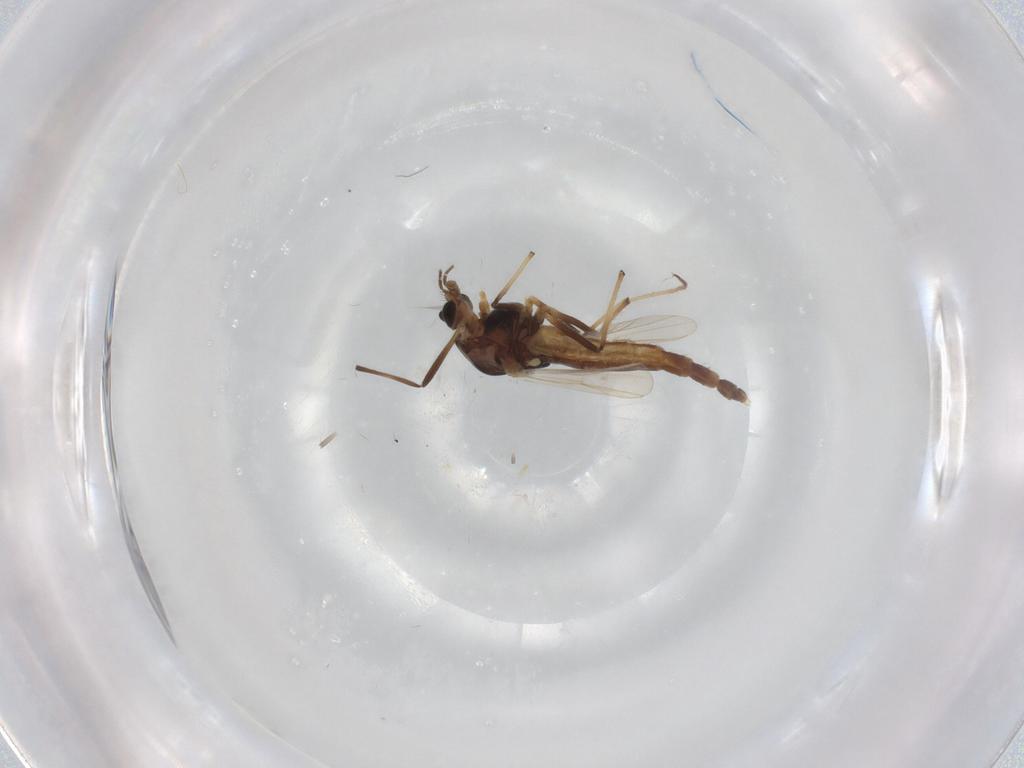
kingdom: Animalia
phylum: Arthropoda
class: Insecta
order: Diptera
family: Chironomidae
